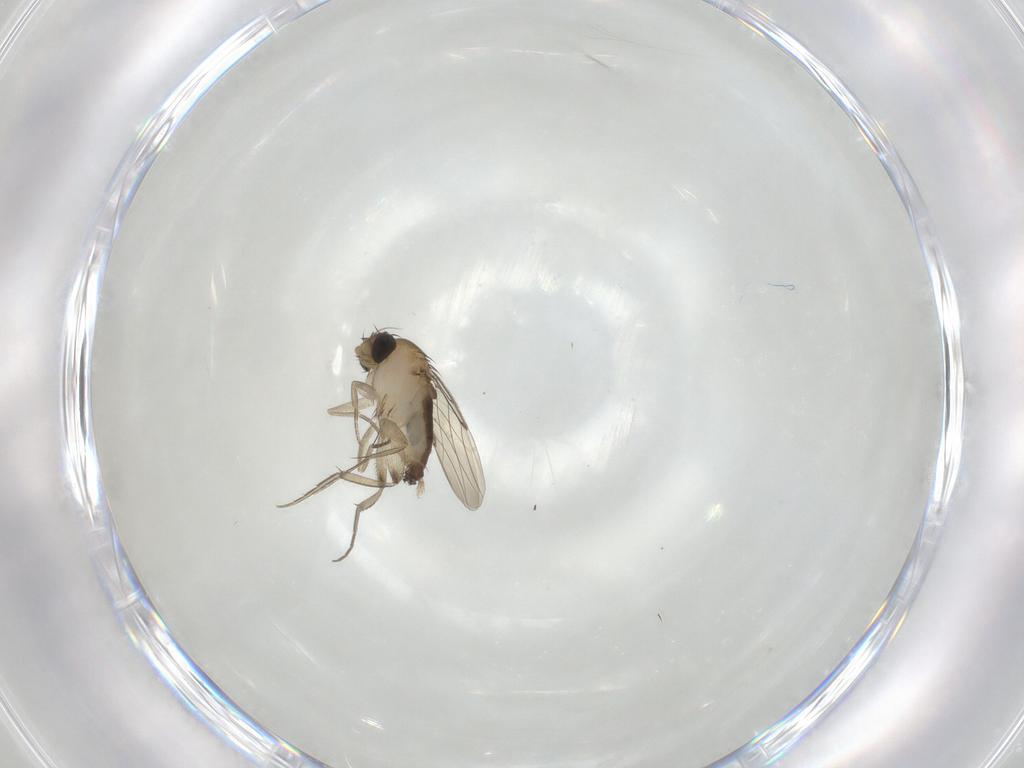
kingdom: Animalia
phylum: Arthropoda
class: Insecta
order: Diptera
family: Phoridae
